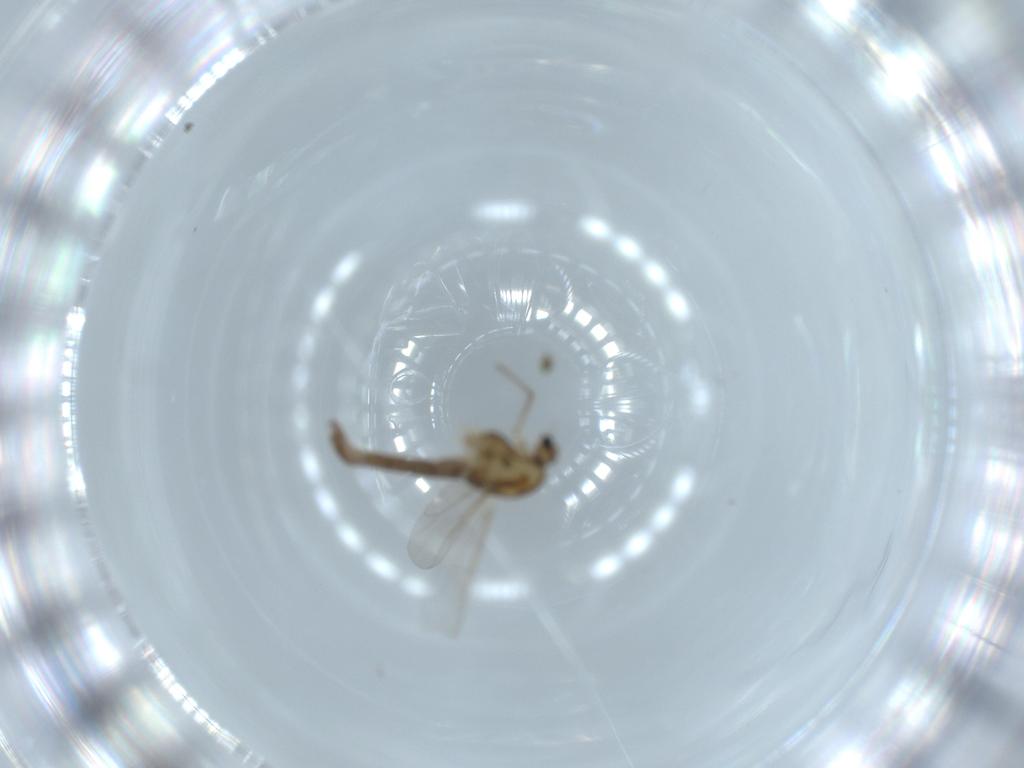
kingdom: Animalia
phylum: Arthropoda
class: Insecta
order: Diptera
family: Chironomidae
